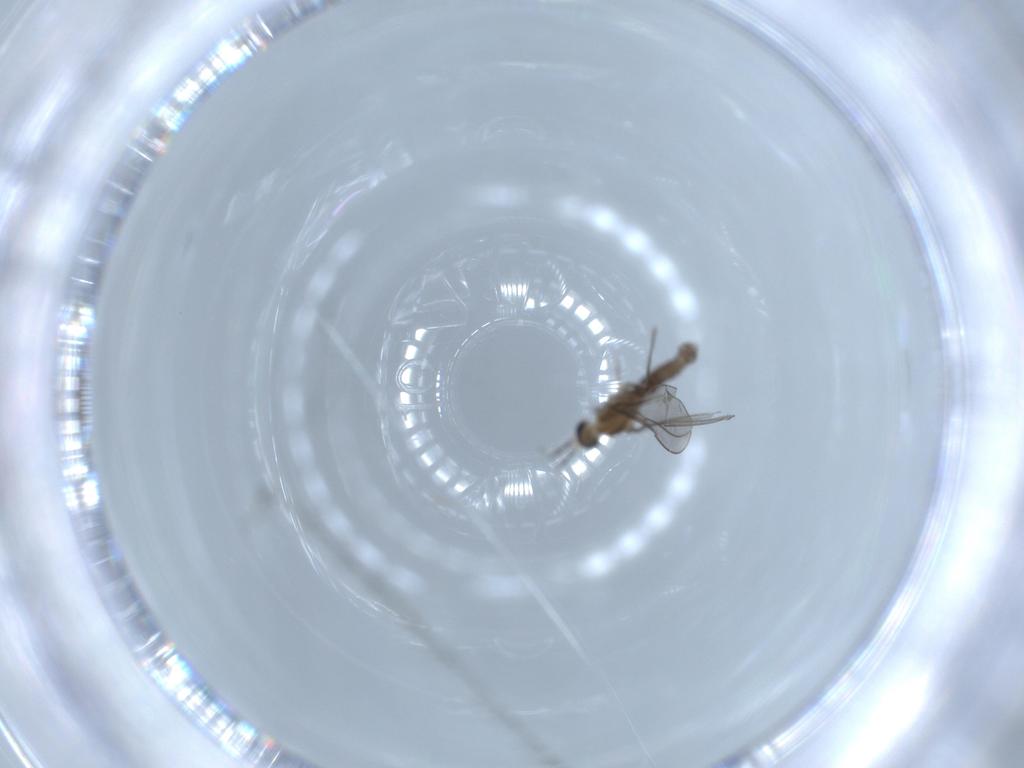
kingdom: Animalia
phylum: Arthropoda
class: Insecta
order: Diptera
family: Cecidomyiidae
